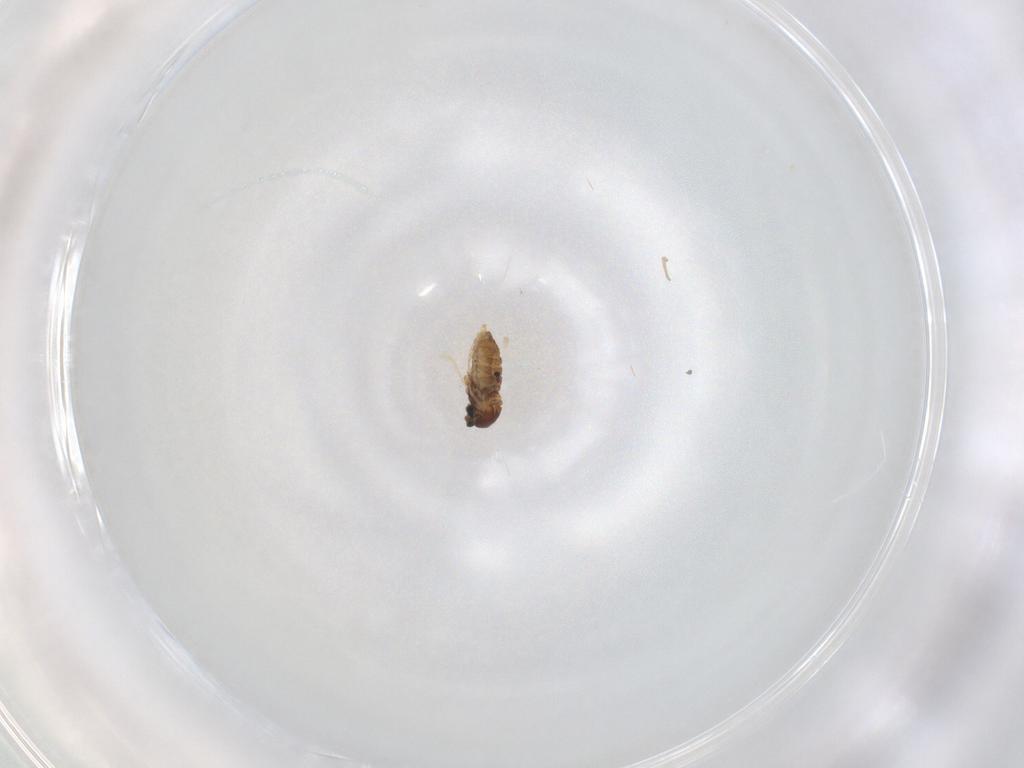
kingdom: Animalia
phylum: Arthropoda
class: Insecta
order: Diptera
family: Cecidomyiidae
